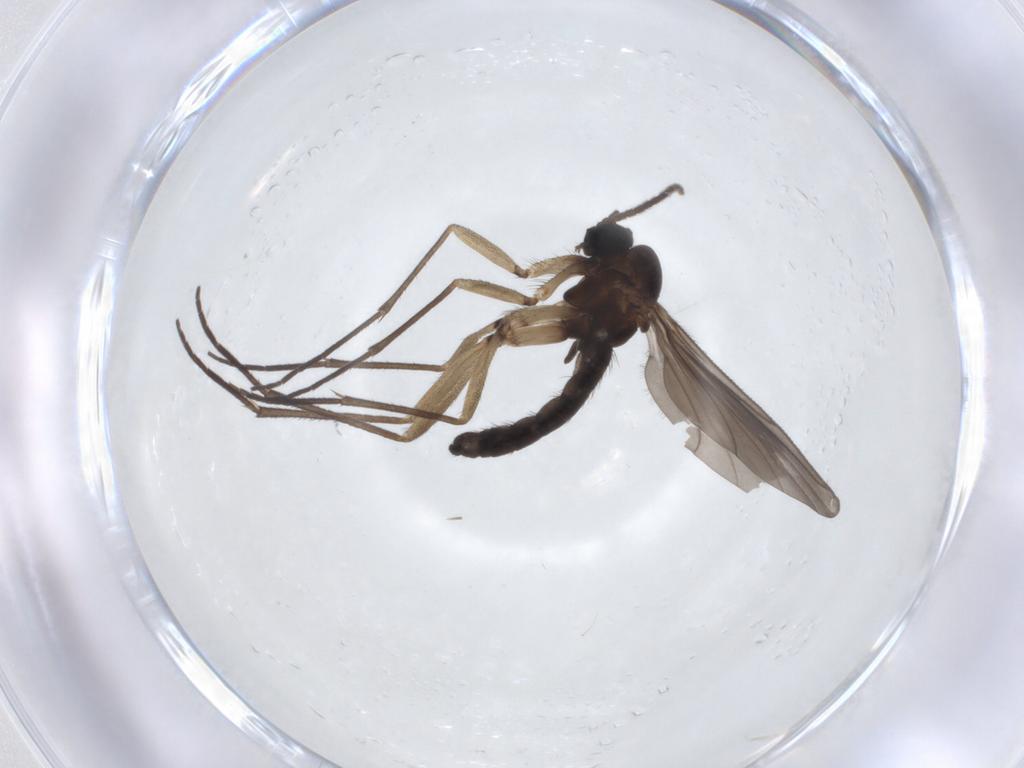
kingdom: Animalia
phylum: Arthropoda
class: Insecta
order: Diptera
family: Sciaridae
